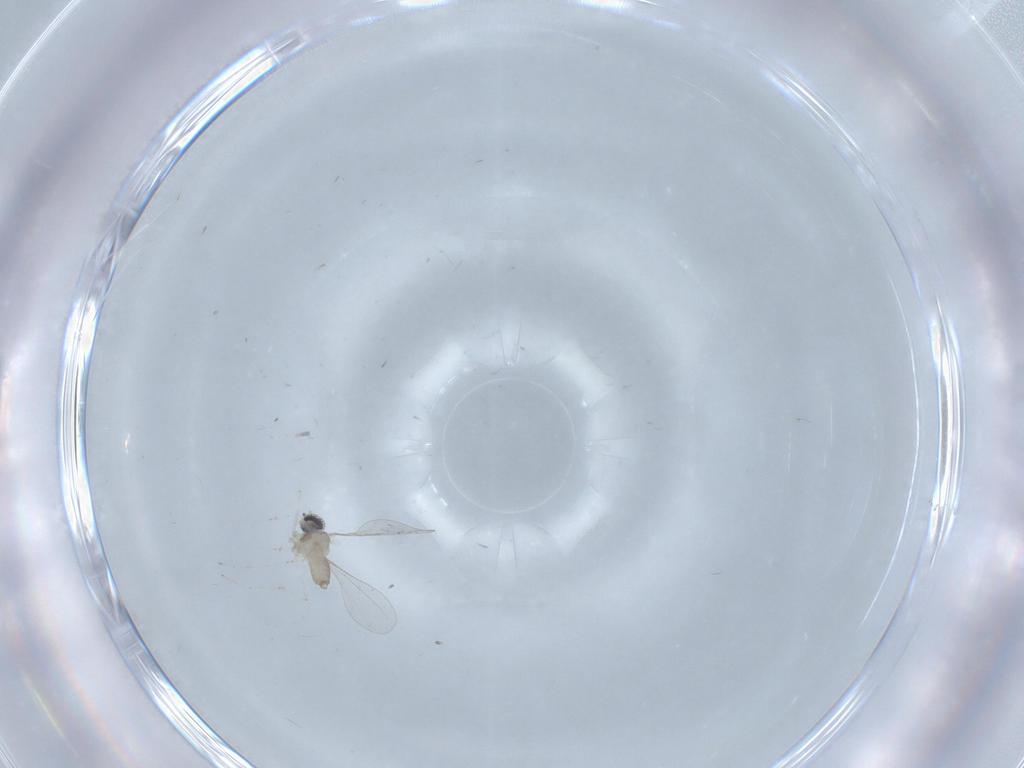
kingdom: Animalia
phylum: Arthropoda
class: Insecta
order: Diptera
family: Cecidomyiidae
